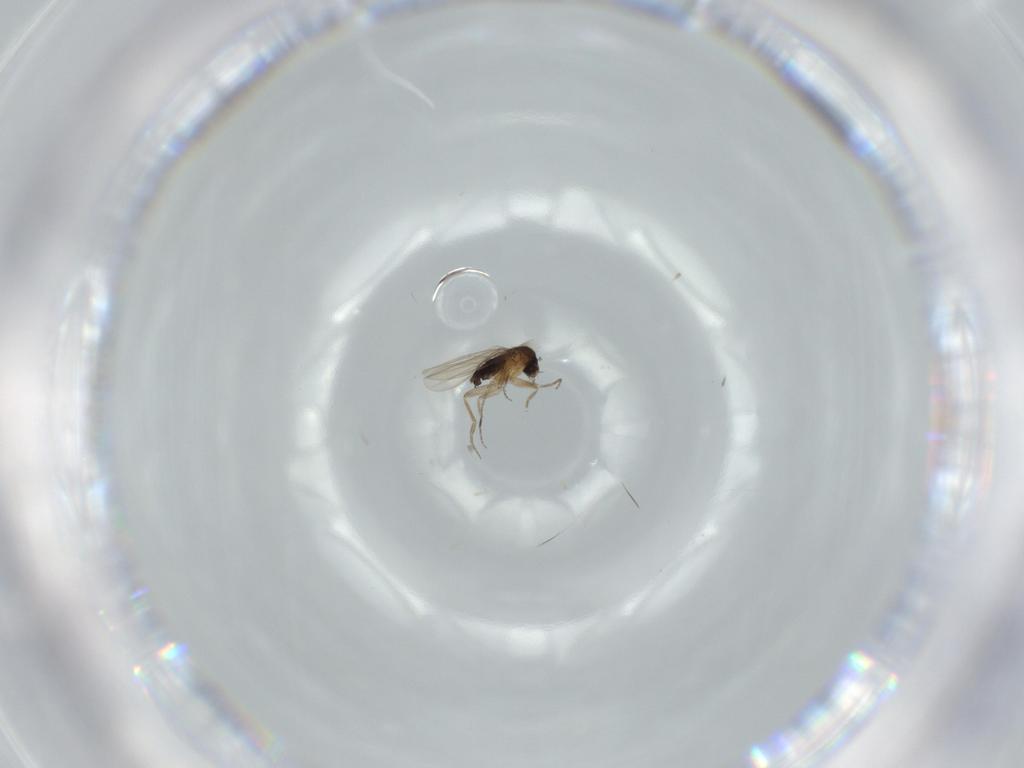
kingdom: Animalia
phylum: Arthropoda
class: Insecta
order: Diptera
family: Phoridae
